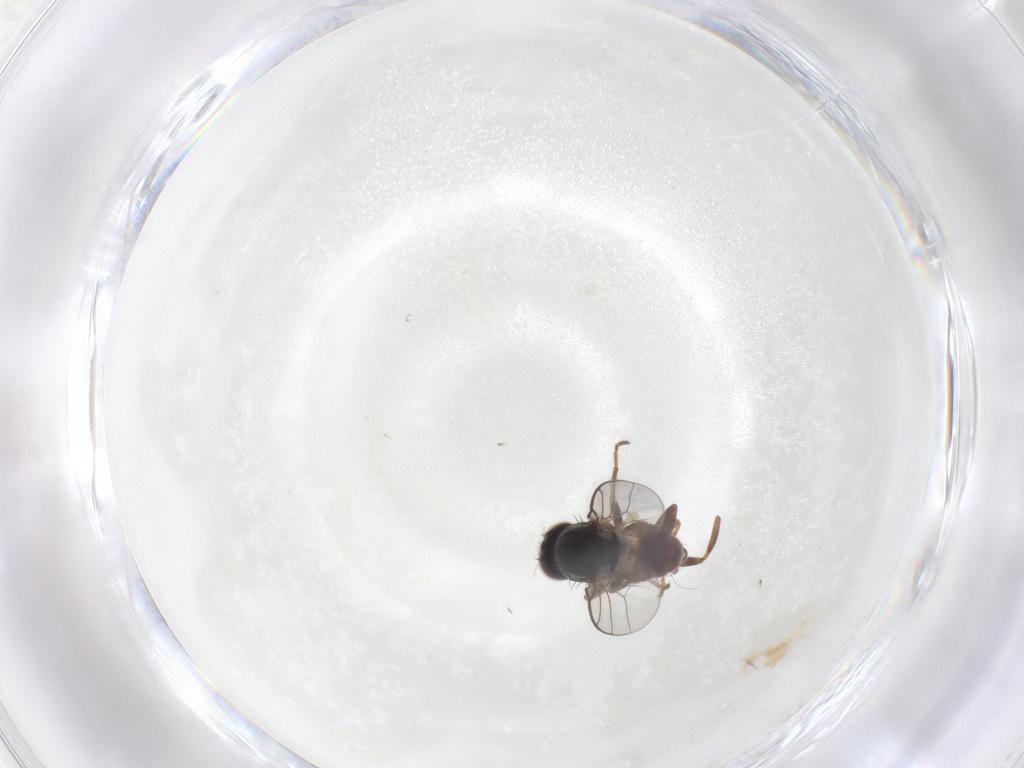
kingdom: Animalia
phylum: Arthropoda
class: Insecta
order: Diptera
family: Chloropidae
